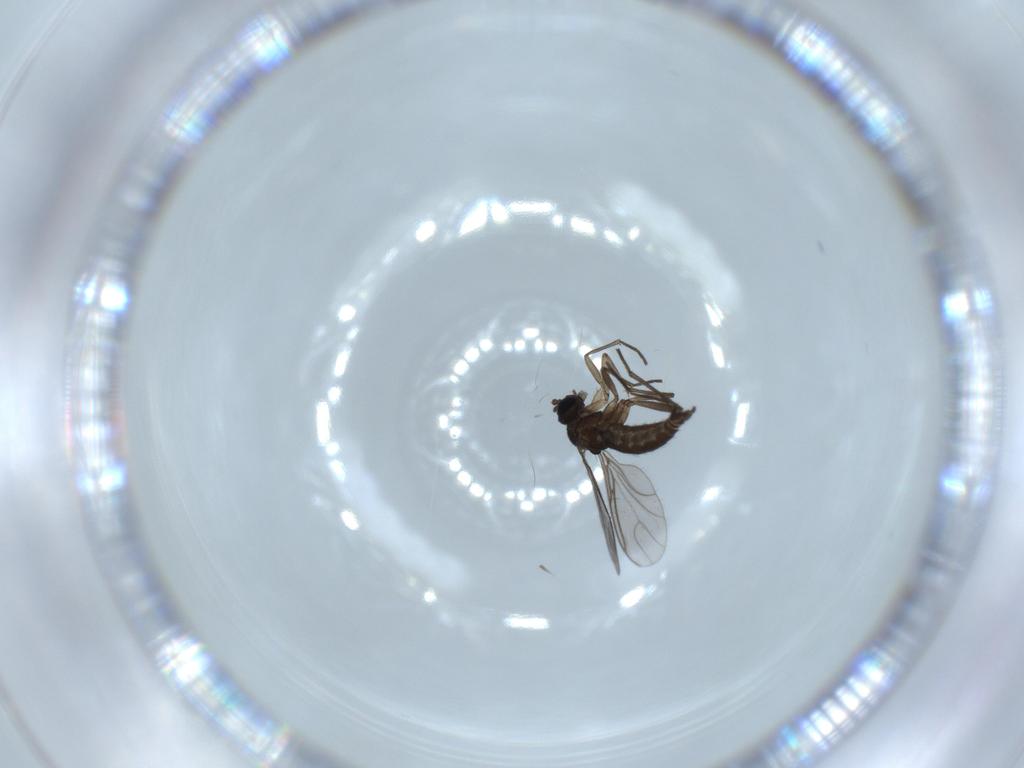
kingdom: Animalia
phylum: Arthropoda
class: Insecta
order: Diptera
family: Sciaridae
